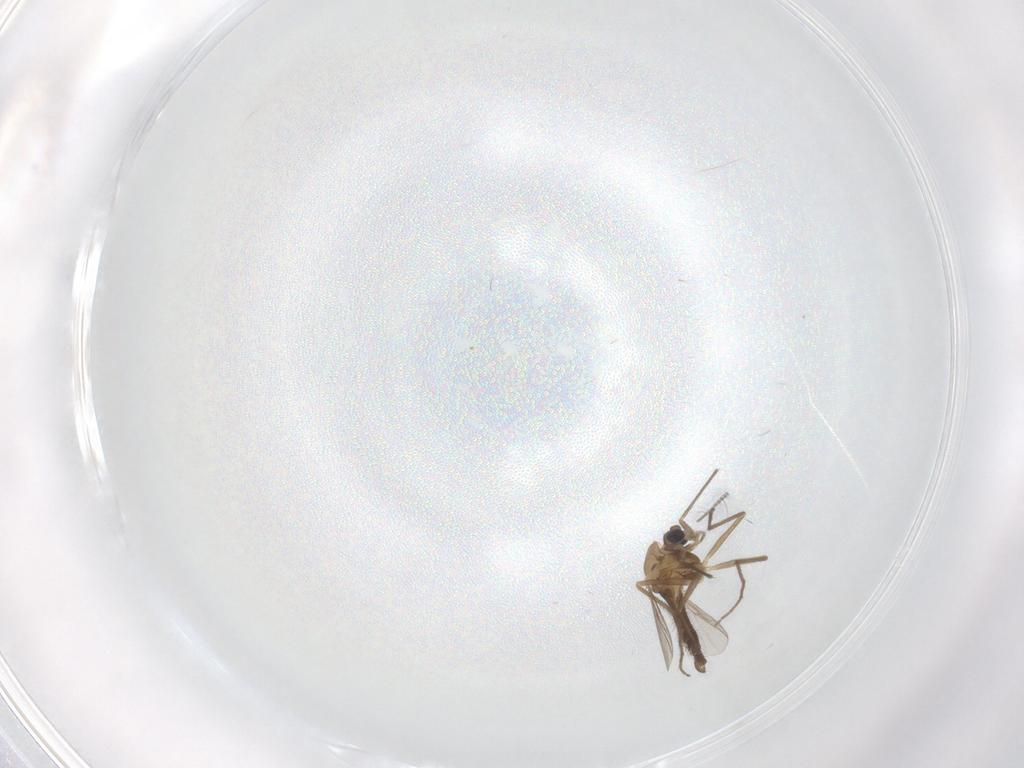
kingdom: Animalia
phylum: Arthropoda
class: Insecta
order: Diptera
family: Chironomidae
